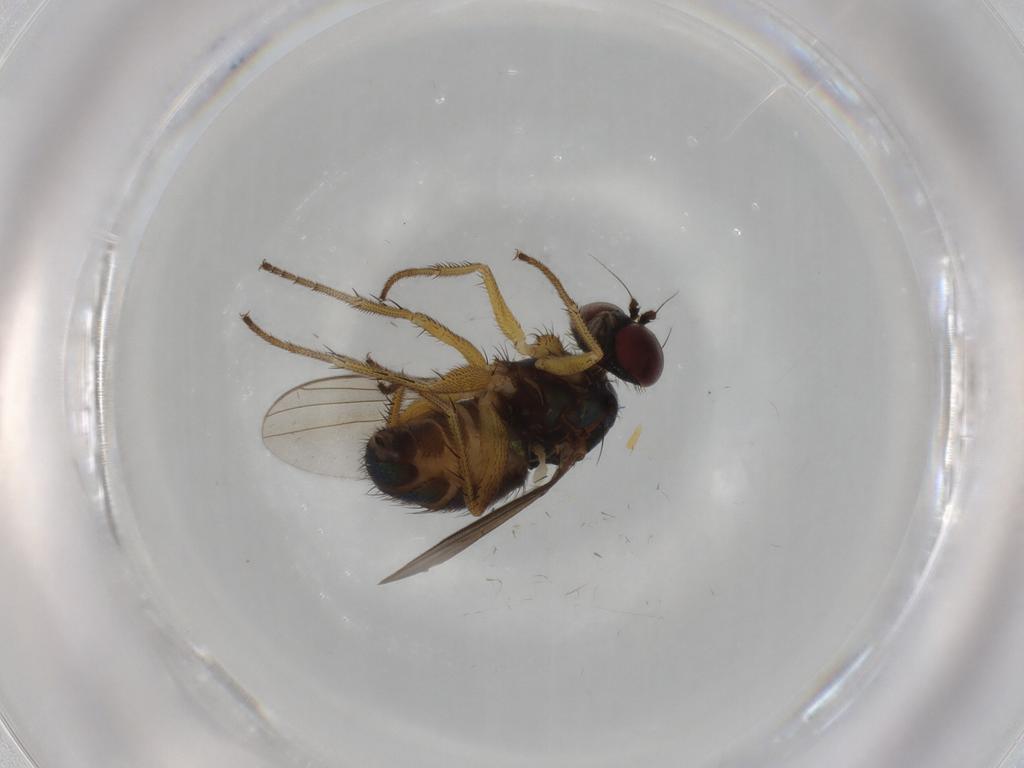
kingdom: Animalia
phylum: Arthropoda
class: Insecta
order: Diptera
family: Dolichopodidae
